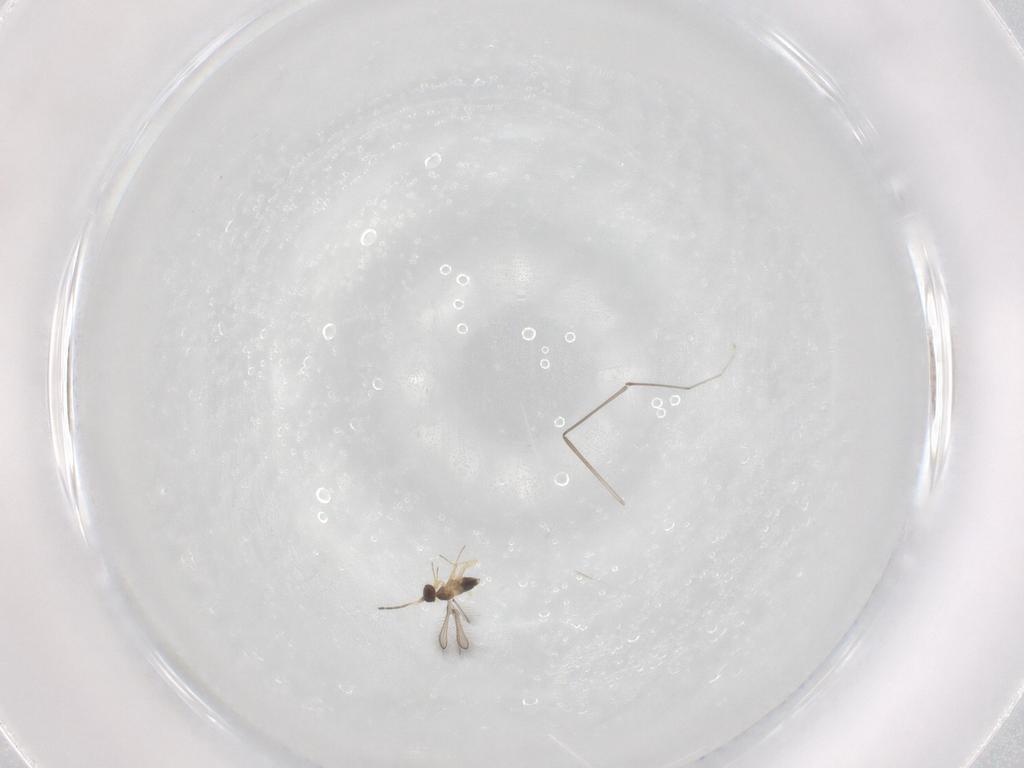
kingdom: Animalia
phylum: Arthropoda
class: Insecta
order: Hymenoptera
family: Mymaridae
